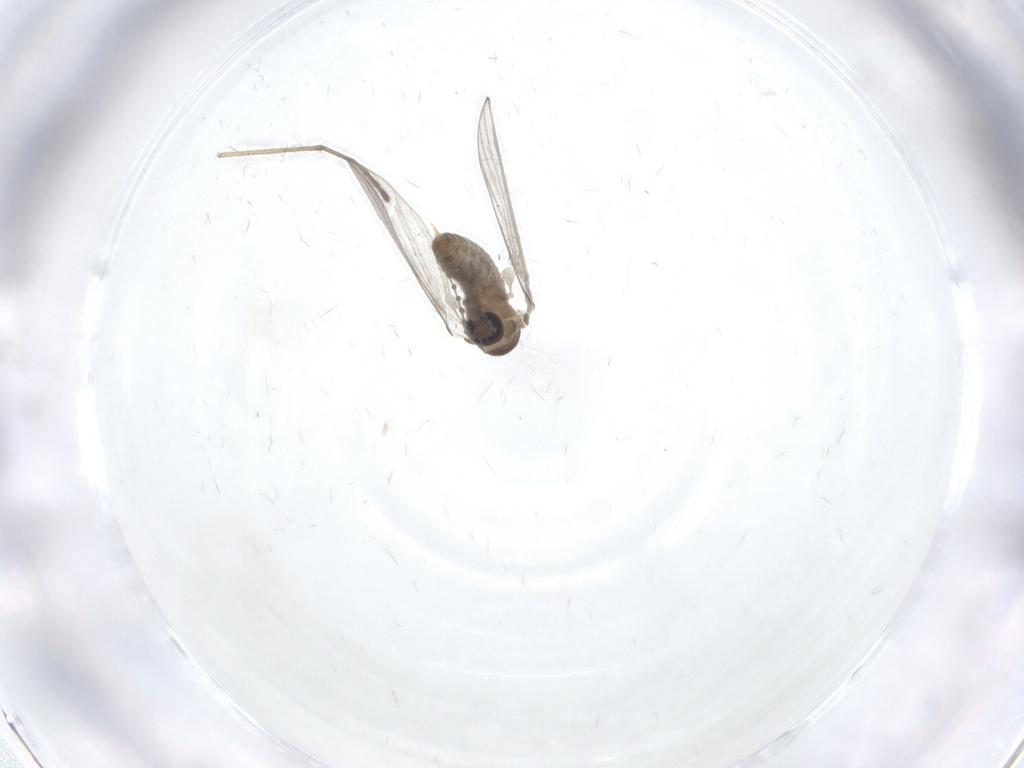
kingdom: Animalia
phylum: Arthropoda
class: Insecta
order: Diptera
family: Psychodidae
